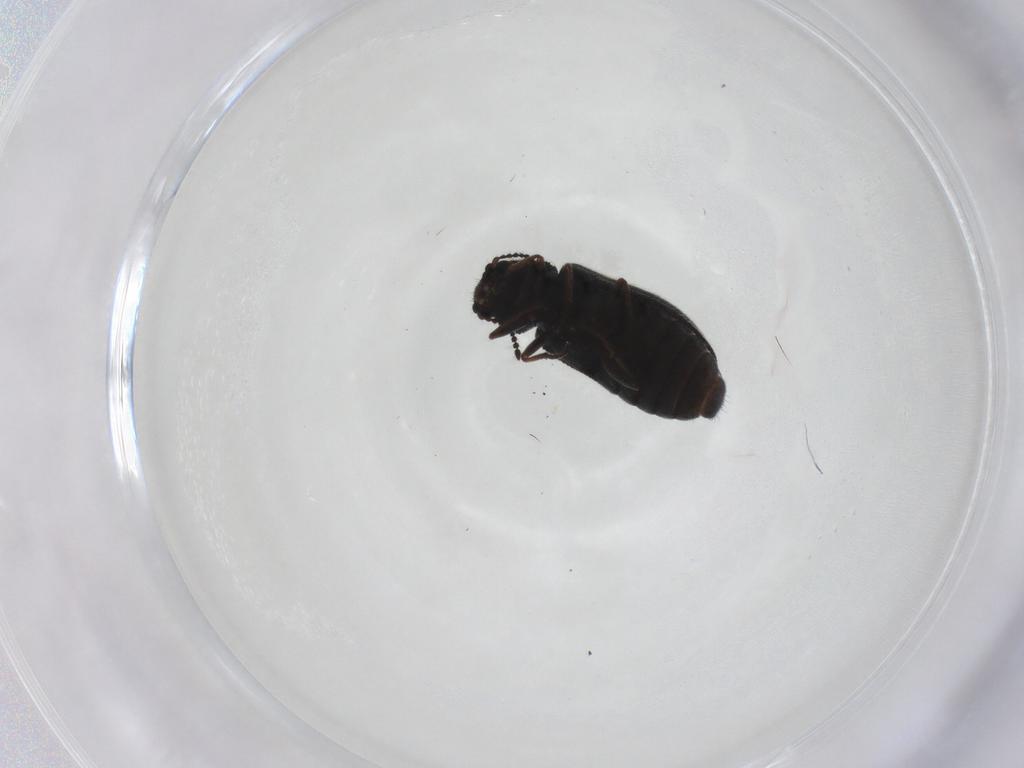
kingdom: Animalia
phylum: Arthropoda
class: Insecta
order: Coleoptera
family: Melyridae
